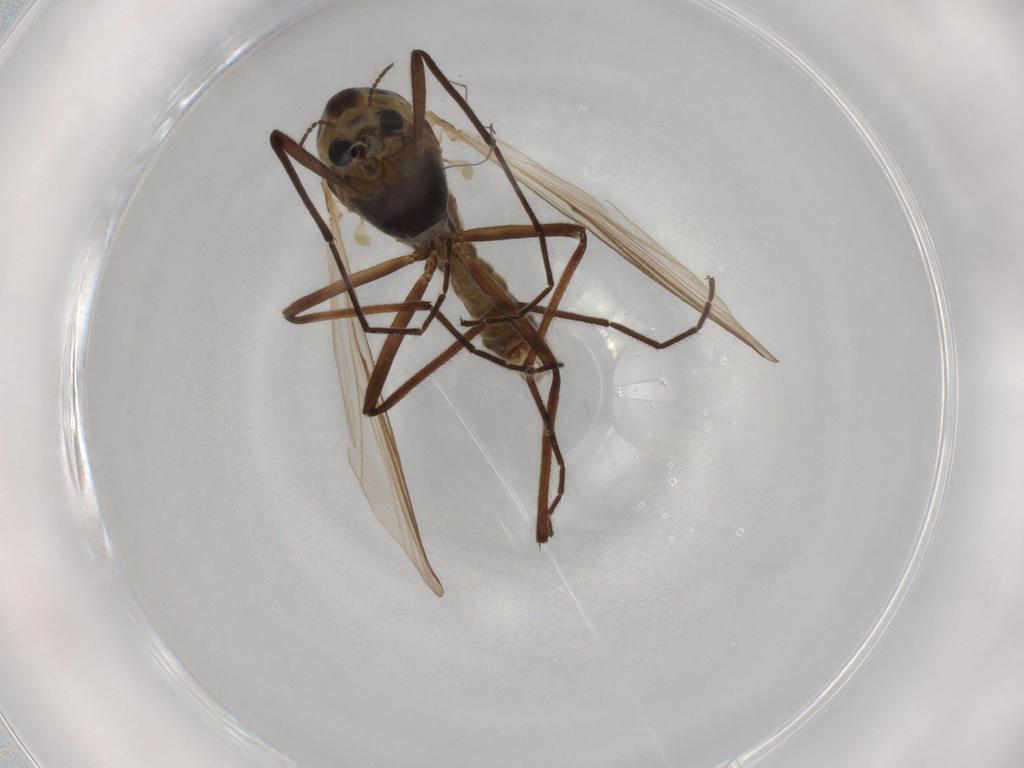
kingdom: Animalia
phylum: Arthropoda
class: Insecta
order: Diptera
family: Drosophilidae
